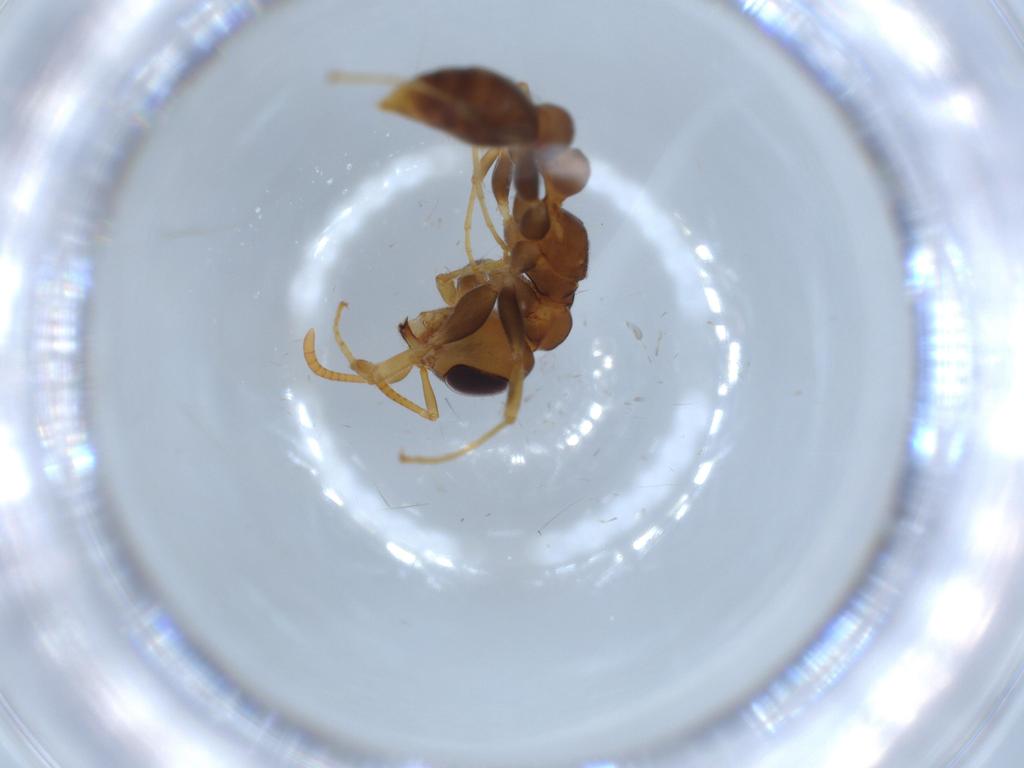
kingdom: Animalia
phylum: Arthropoda
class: Insecta
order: Hymenoptera
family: Formicidae
